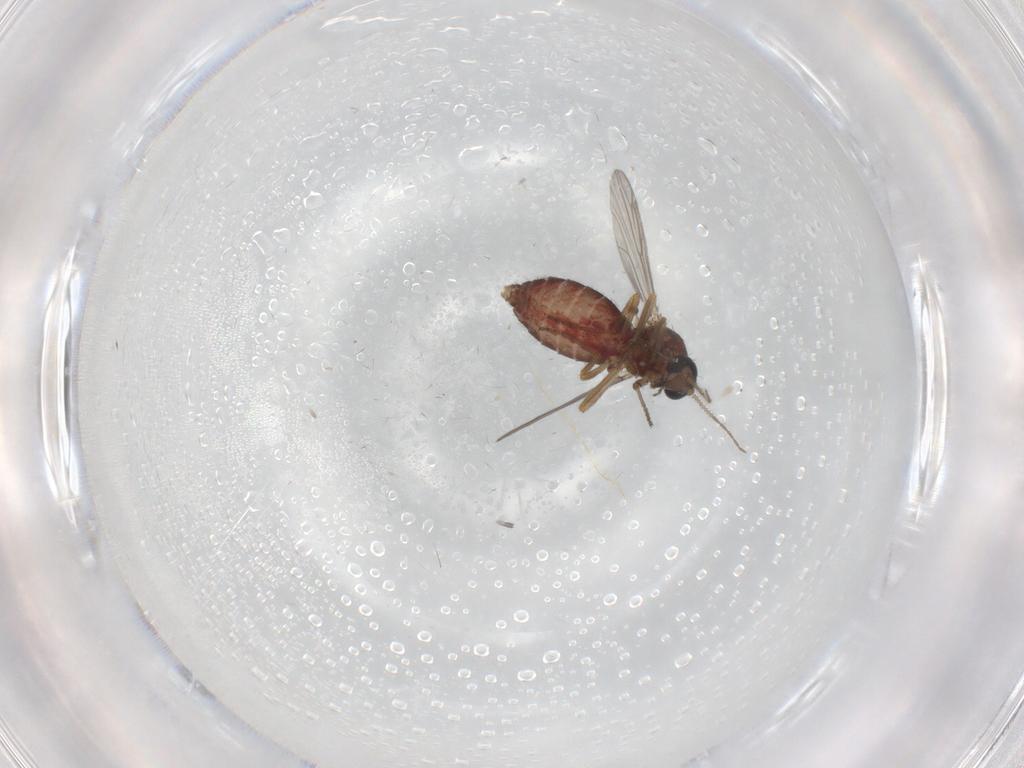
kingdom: Animalia
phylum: Arthropoda
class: Insecta
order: Diptera
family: Ceratopogonidae
